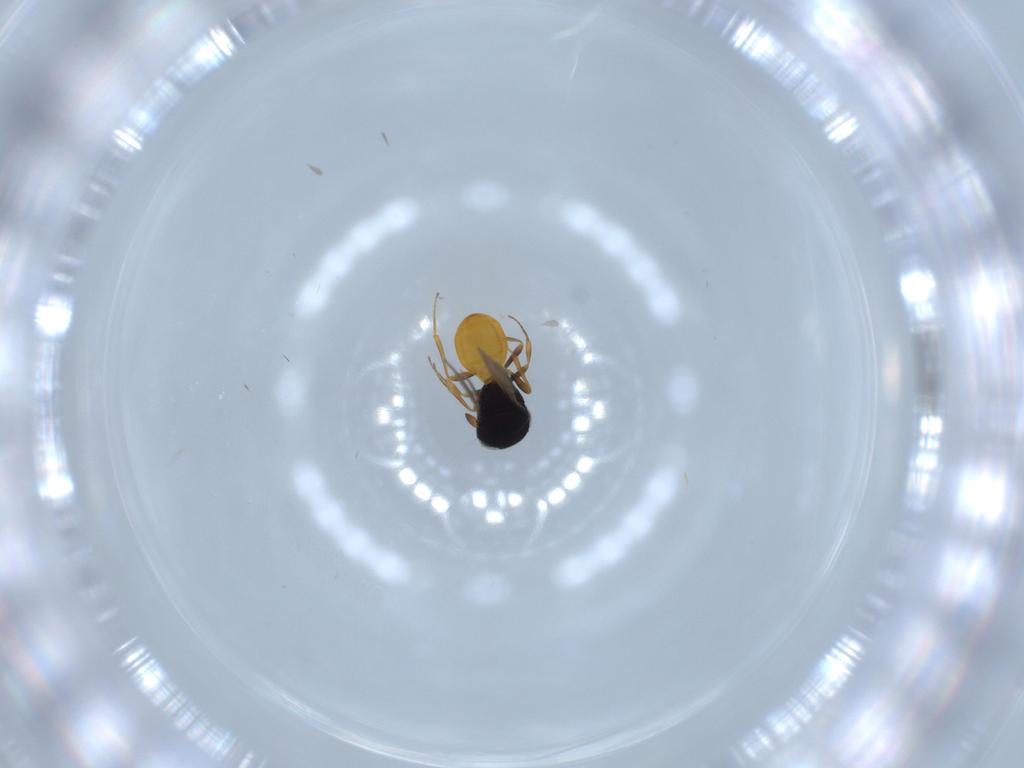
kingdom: Animalia
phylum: Arthropoda
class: Insecta
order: Hymenoptera
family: Scelionidae
